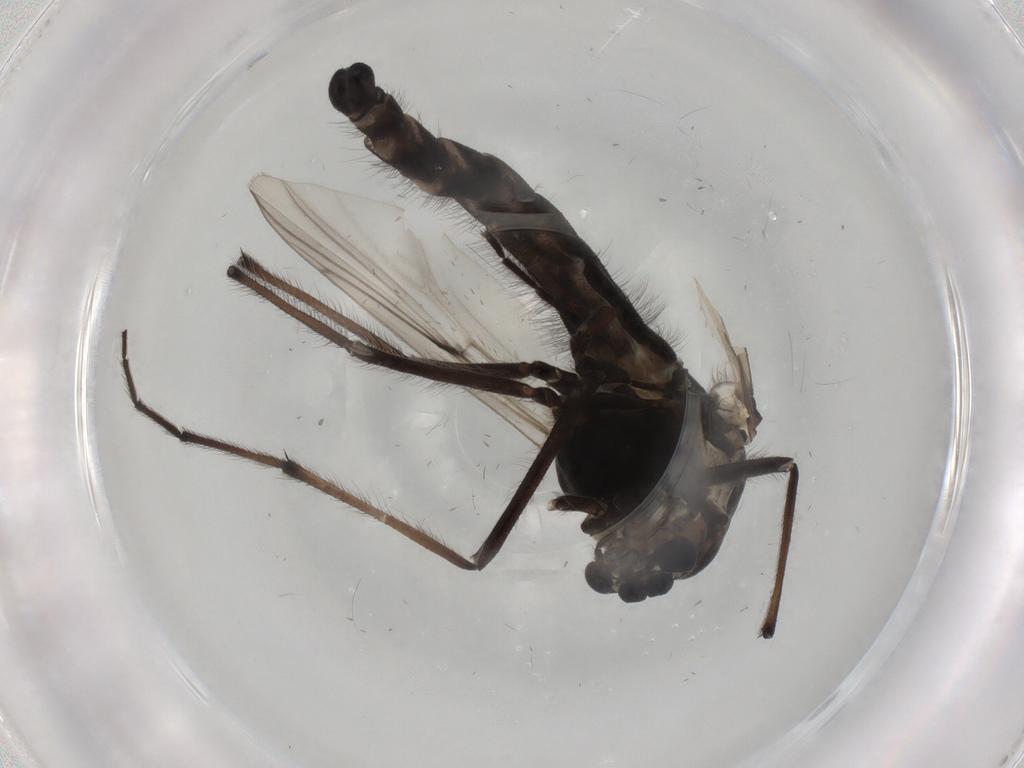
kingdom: Animalia
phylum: Arthropoda
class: Insecta
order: Diptera
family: Chironomidae
